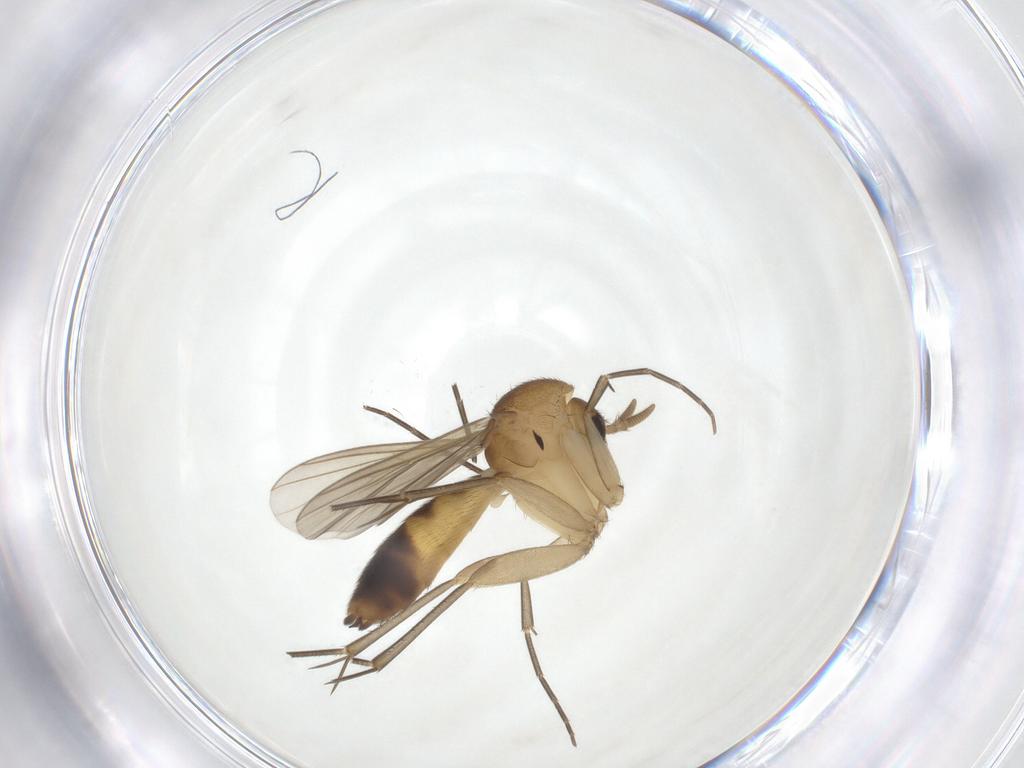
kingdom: Animalia
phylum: Arthropoda
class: Insecta
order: Diptera
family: Mycetophilidae
